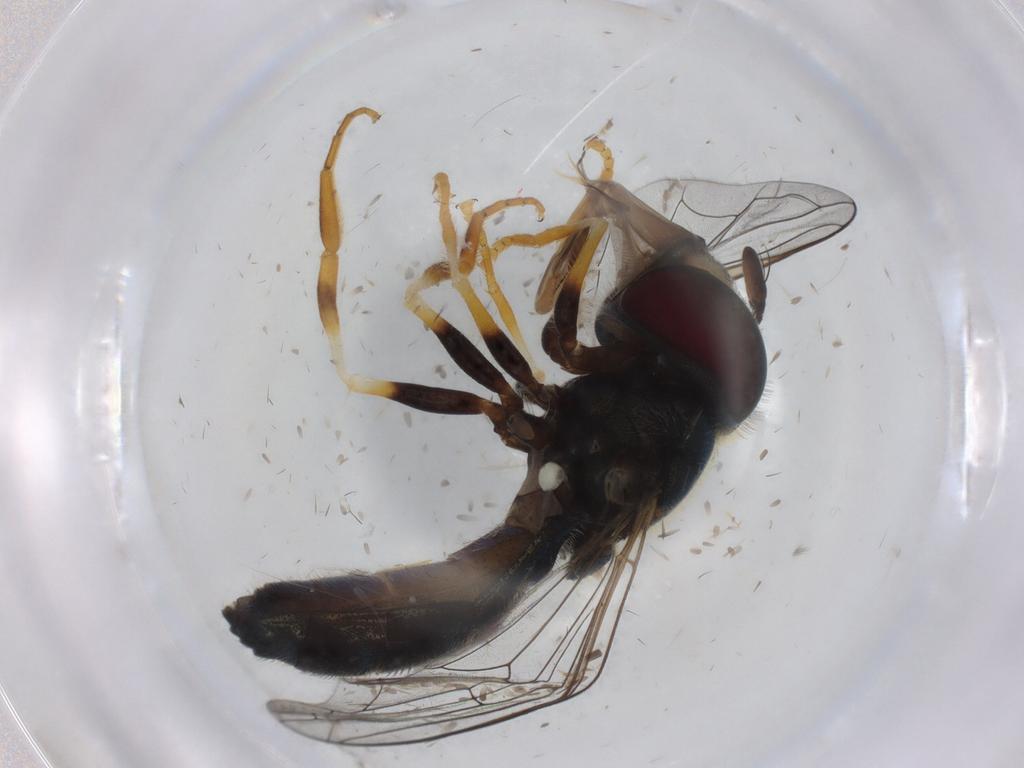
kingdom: Animalia
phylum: Arthropoda
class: Insecta
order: Diptera
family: Syrphidae
